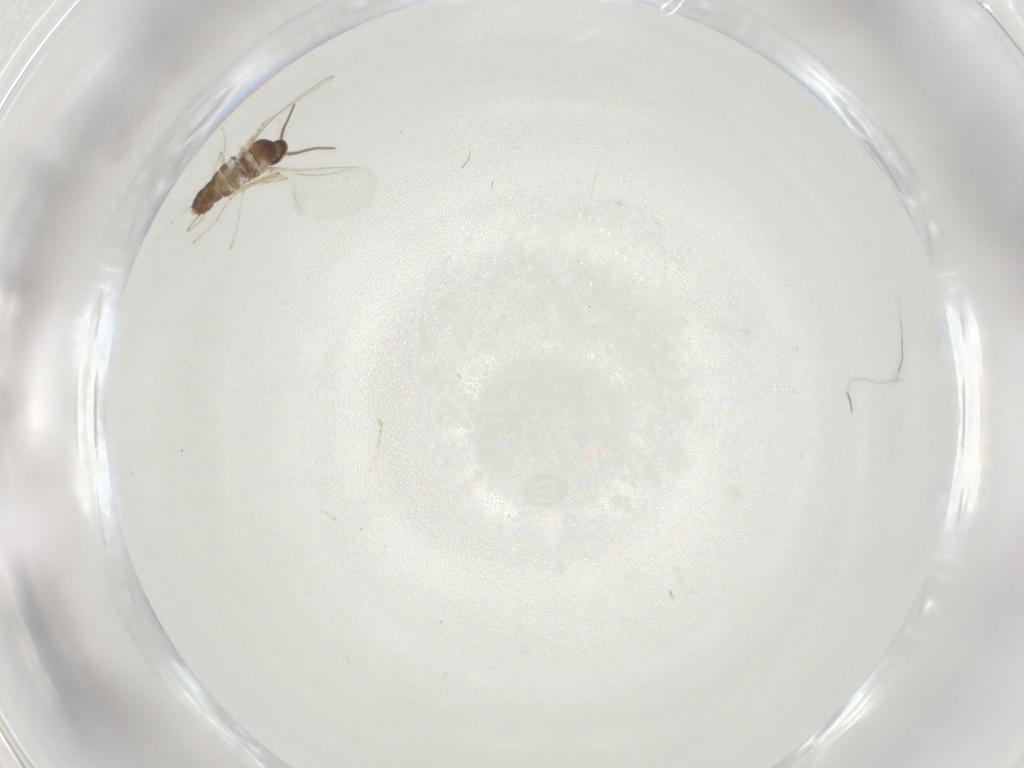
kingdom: Animalia
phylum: Arthropoda
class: Insecta
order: Diptera
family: Cecidomyiidae
